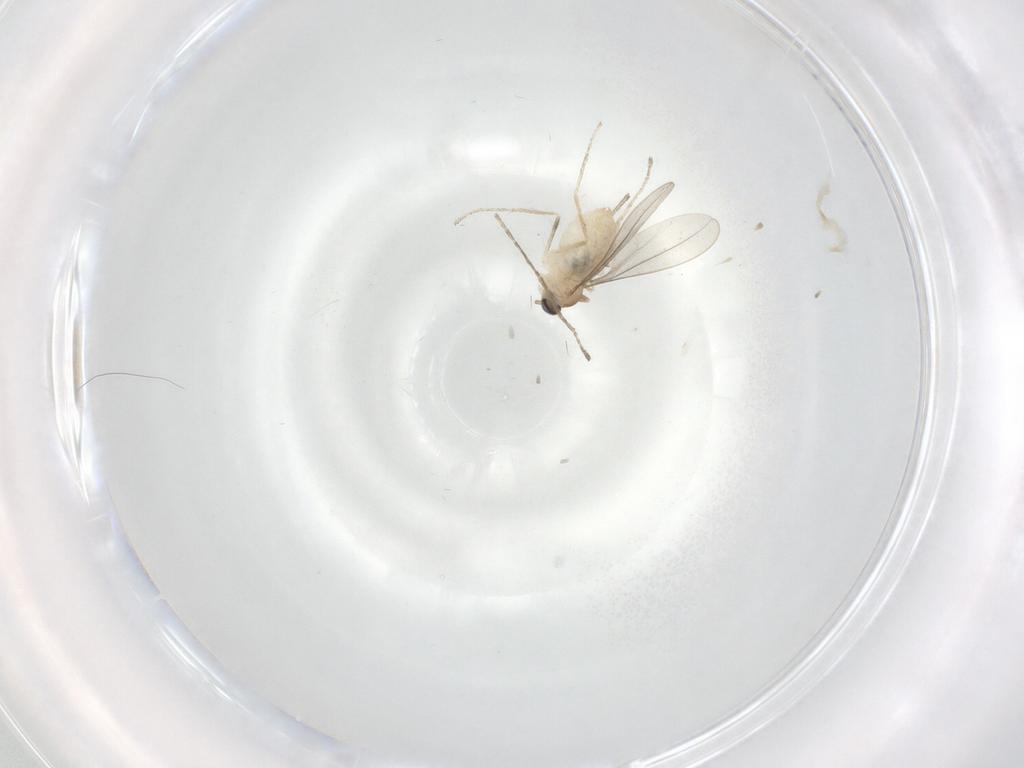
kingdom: Animalia
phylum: Arthropoda
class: Insecta
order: Diptera
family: Cecidomyiidae
